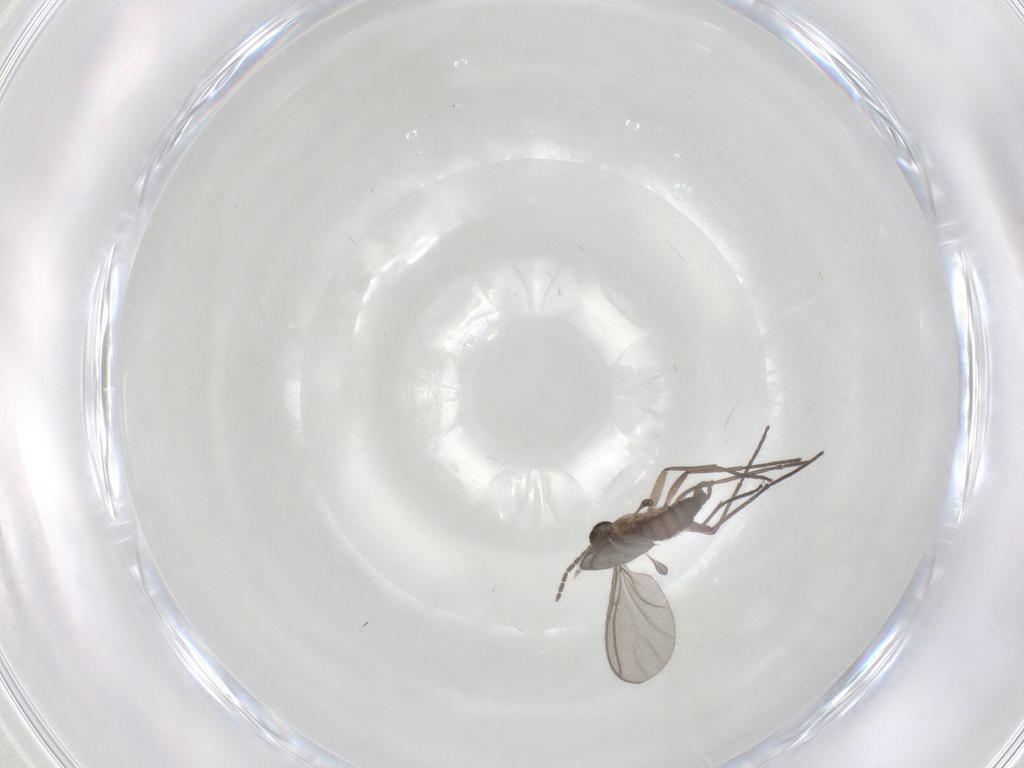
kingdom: Animalia
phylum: Arthropoda
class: Insecta
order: Diptera
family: Sciaridae
